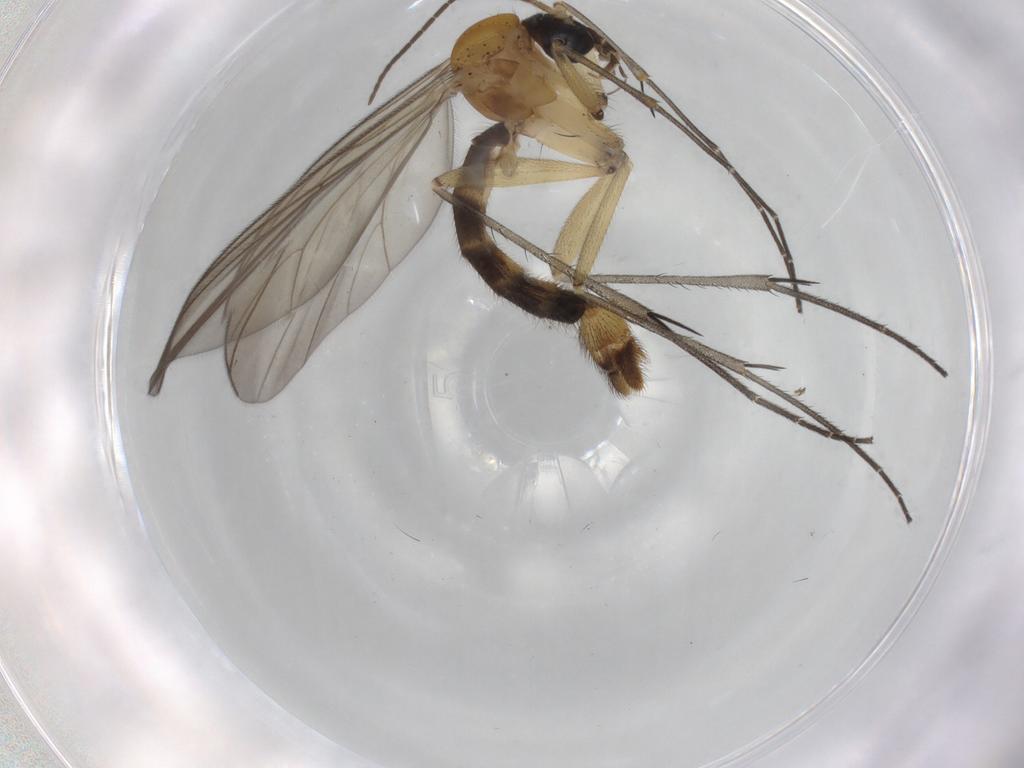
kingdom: Animalia
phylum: Arthropoda
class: Insecta
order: Diptera
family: Mycetophilidae
